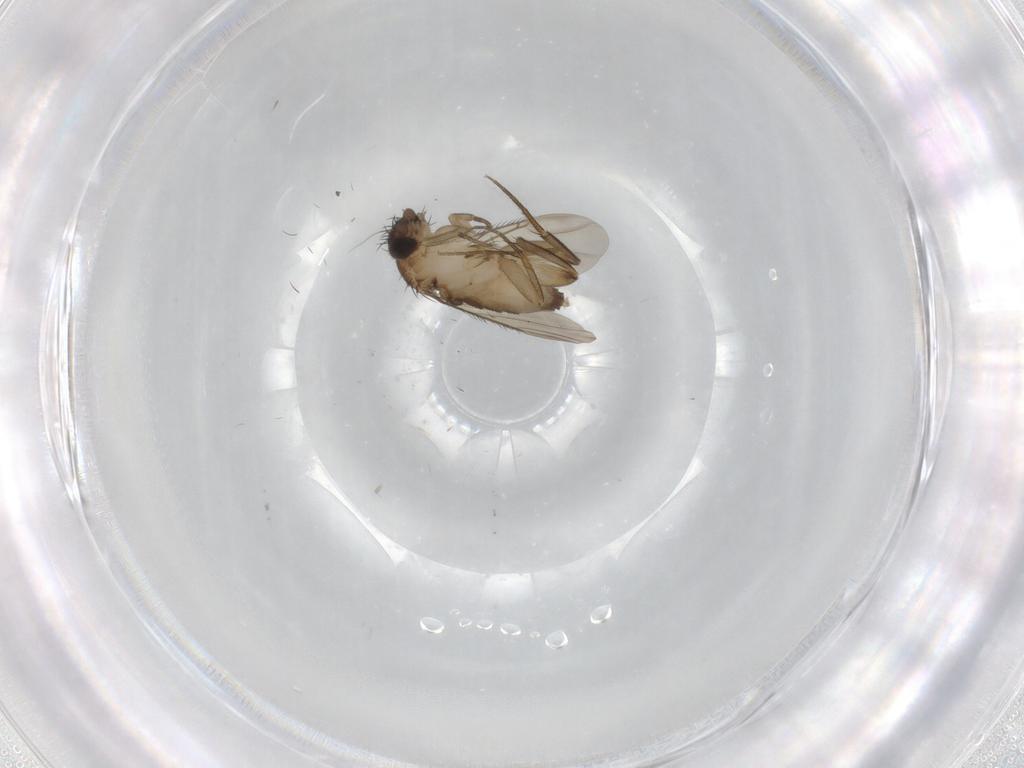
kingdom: Animalia
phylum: Arthropoda
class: Insecta
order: Diptera
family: Phoridae
